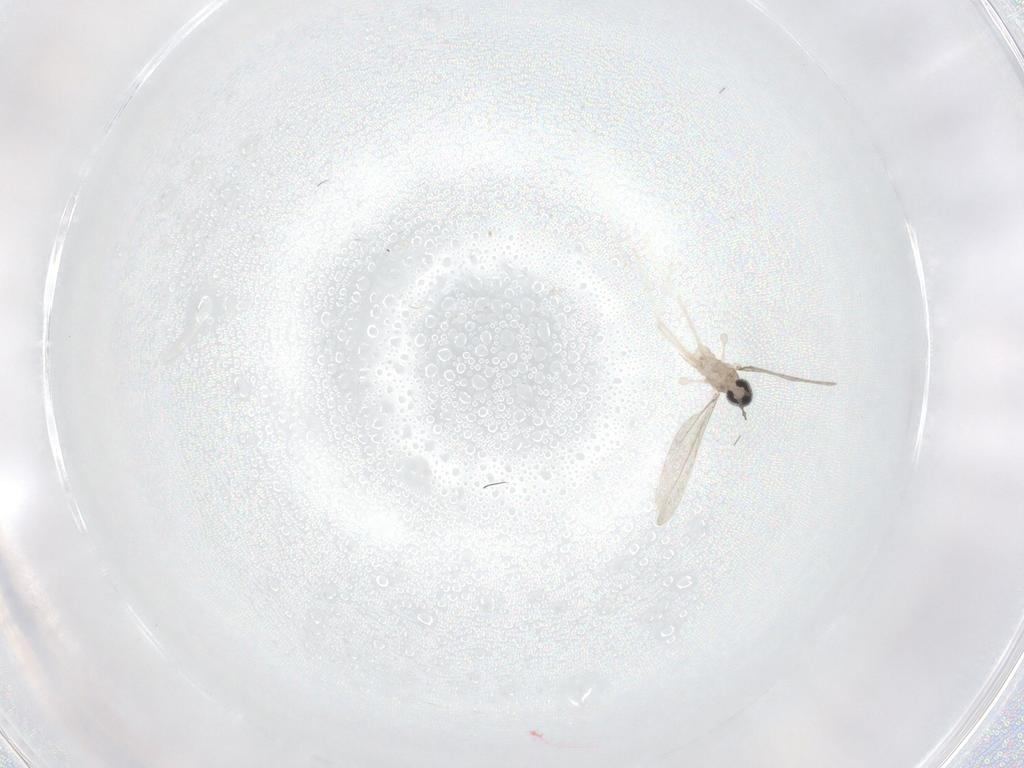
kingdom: Animalia
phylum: Arthropoda
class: Insecta
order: Diptera
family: Cecidomyiidae
